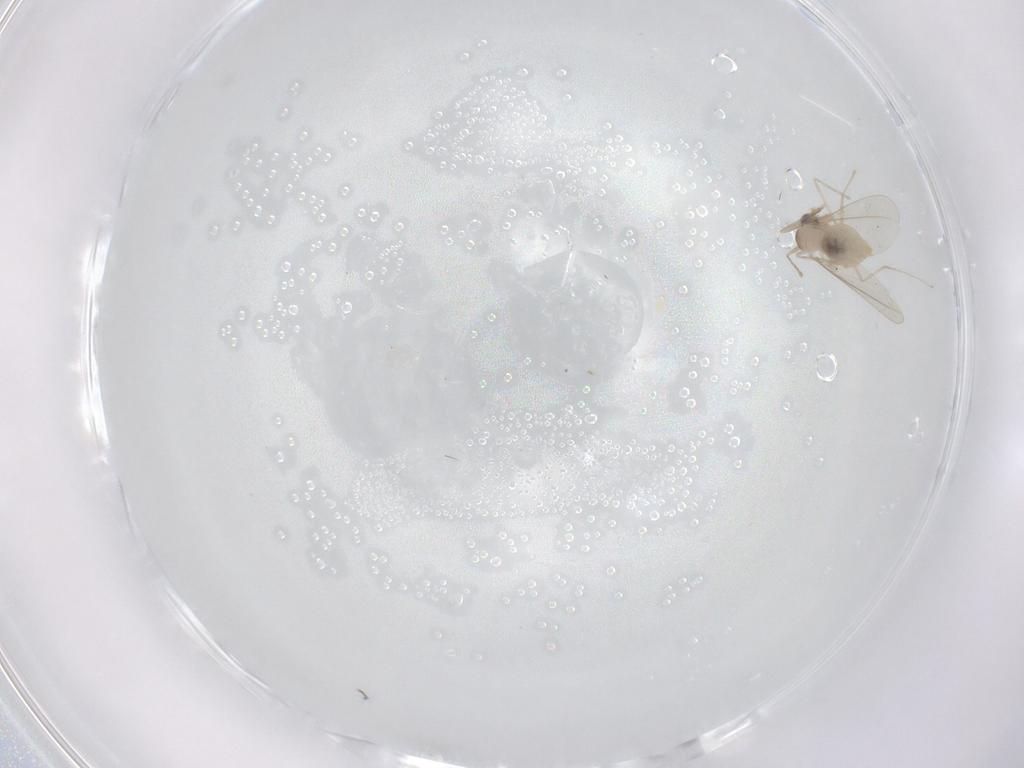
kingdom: Animalia
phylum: Arthropoda
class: Insecta
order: Diptera
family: Cecidomyiidae
